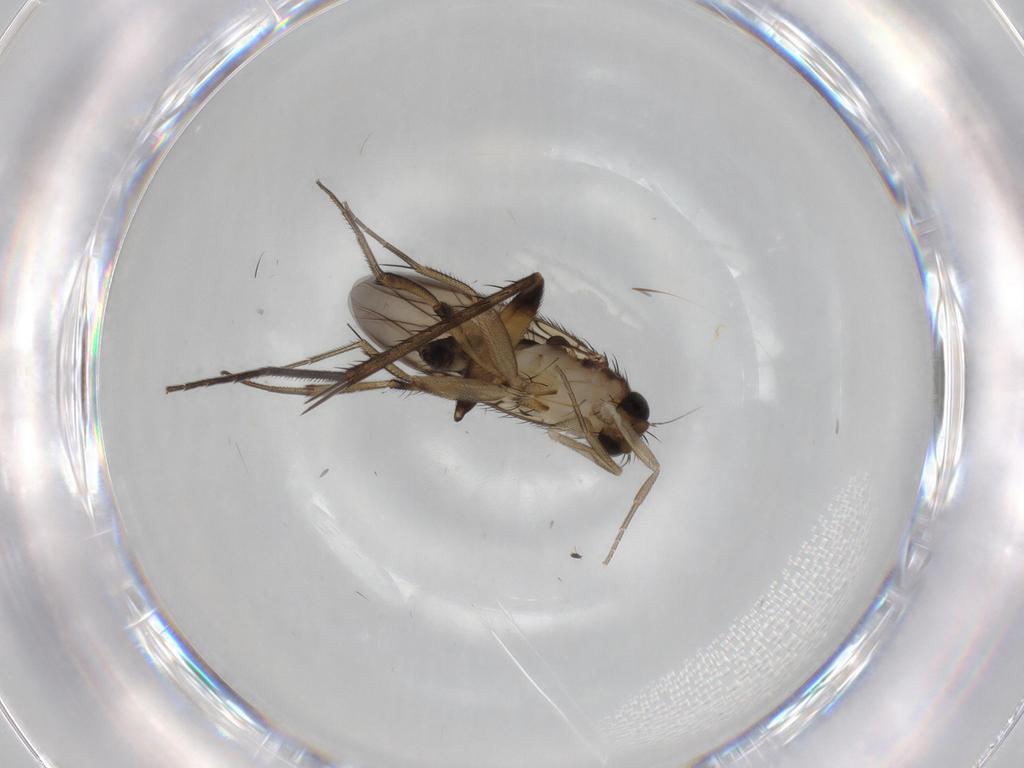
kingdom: Animalia
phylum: Arthropoda
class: Insecta
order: Diptera
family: Phoridae
